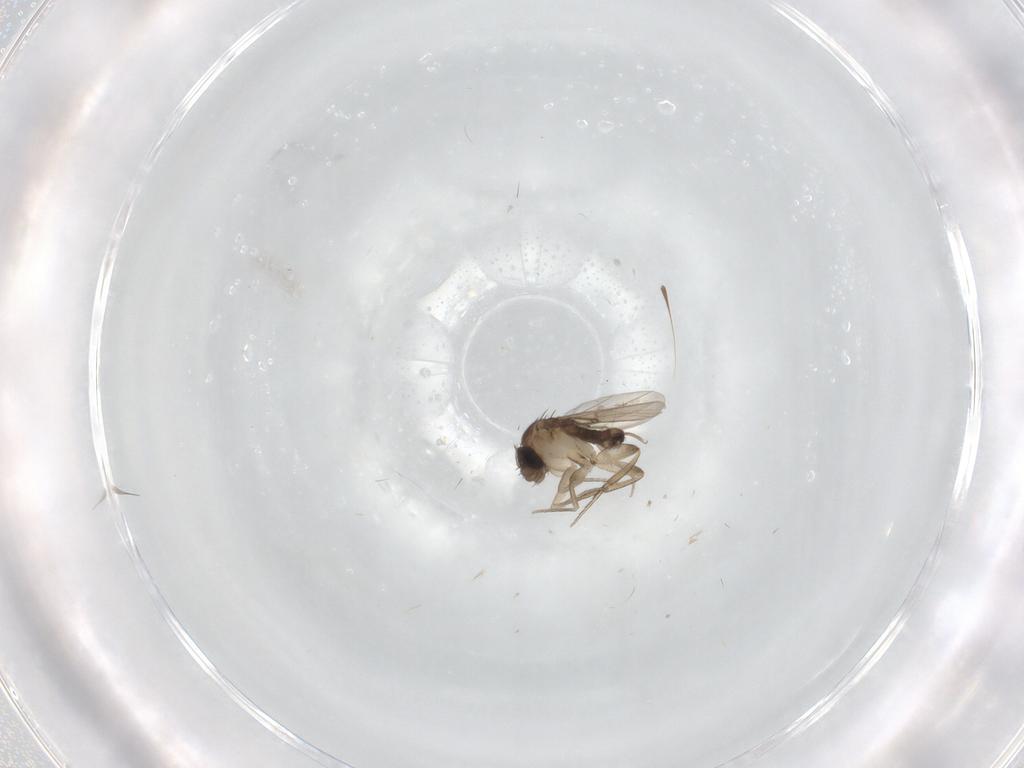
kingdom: Animalia
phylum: Arthropoda
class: Insecta
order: Diptera
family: Phoridae
